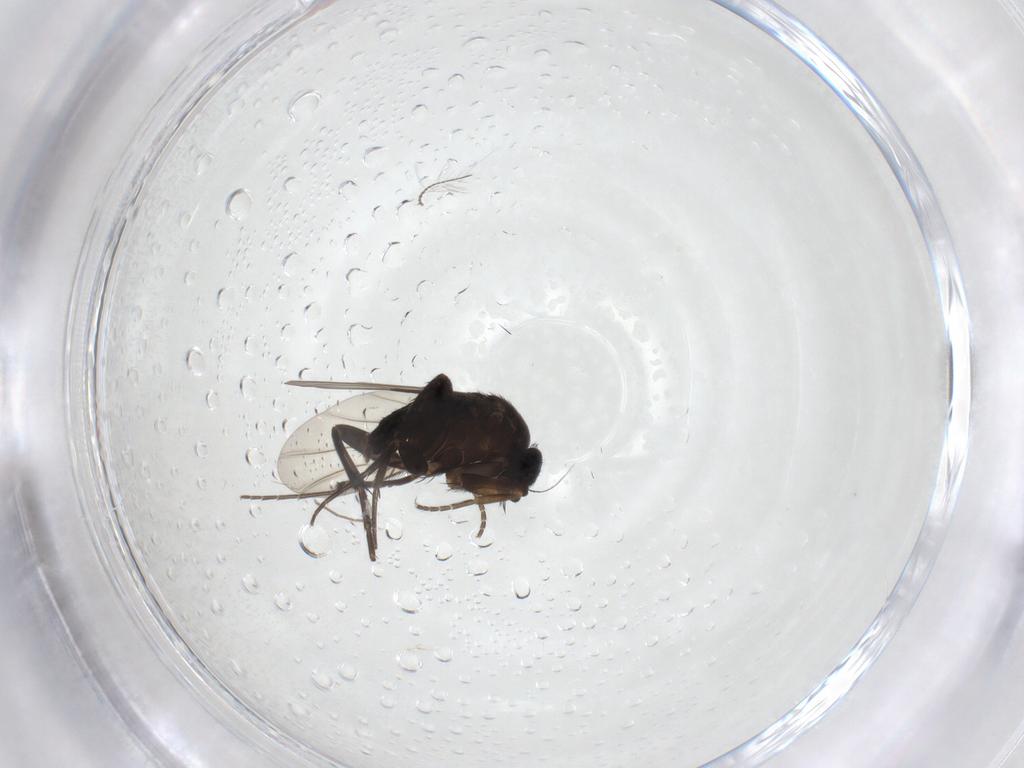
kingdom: Animalia
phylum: Arthropoda
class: Insecta
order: Diptera
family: Phoridae
